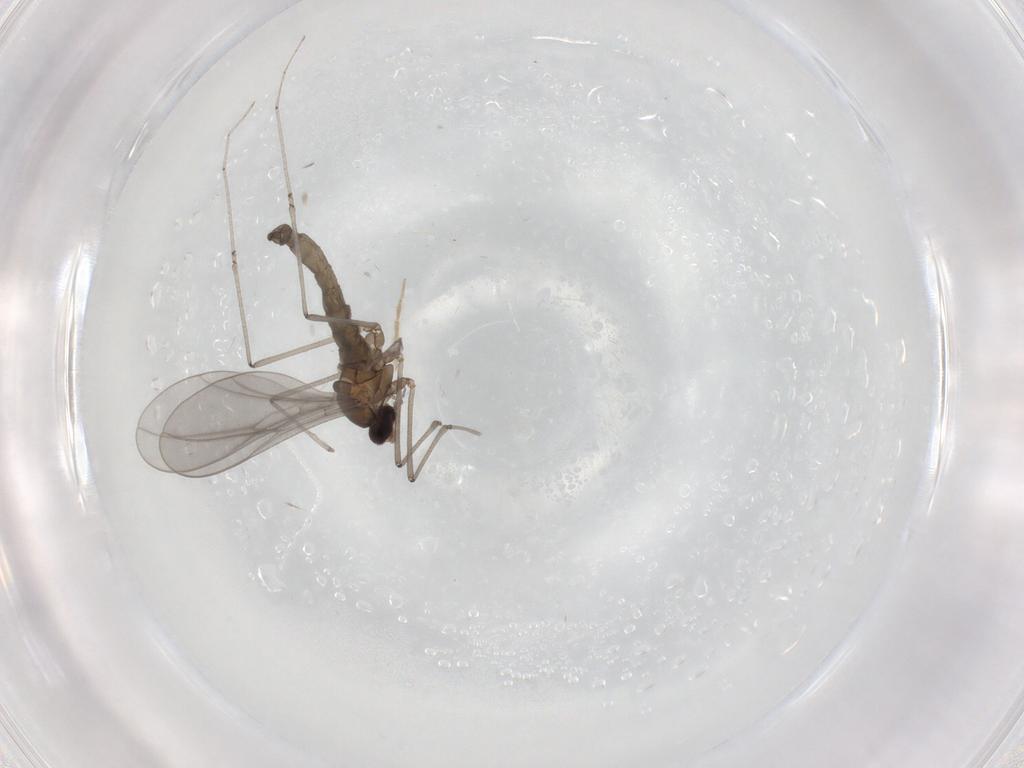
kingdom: Animalia
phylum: Arthropoda
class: Insecta
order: Diptera
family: Cecidomyiidae
